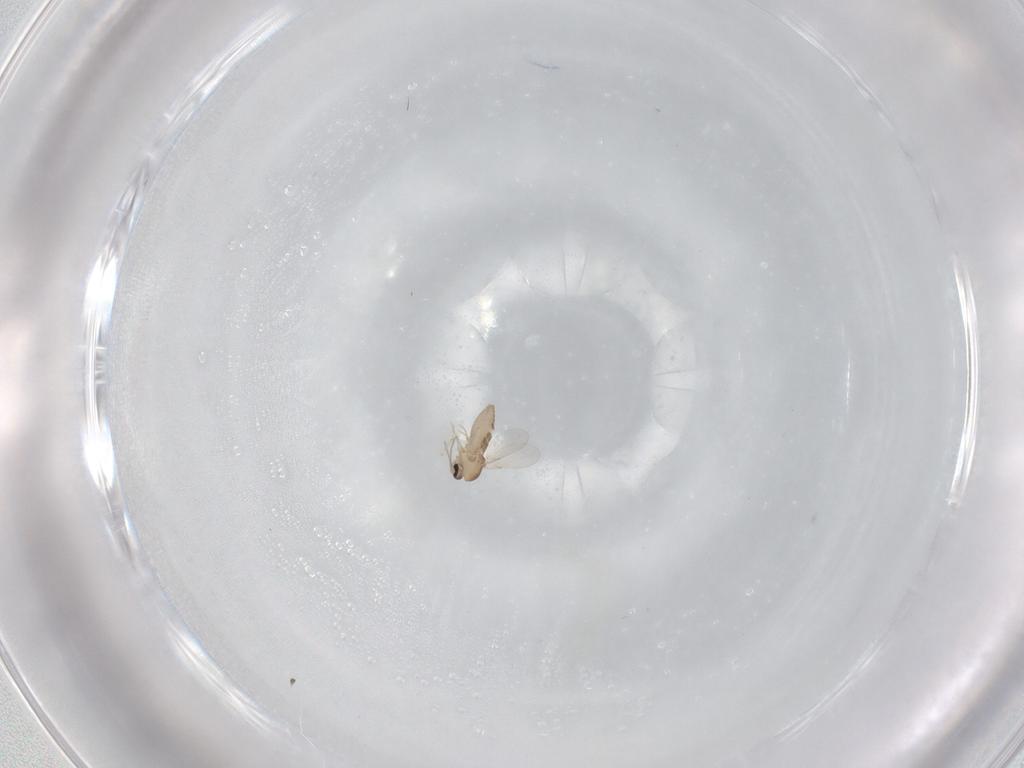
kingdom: Animalia
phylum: Arthropoda
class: Insecta
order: Diptera
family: Ceratopogonidae
